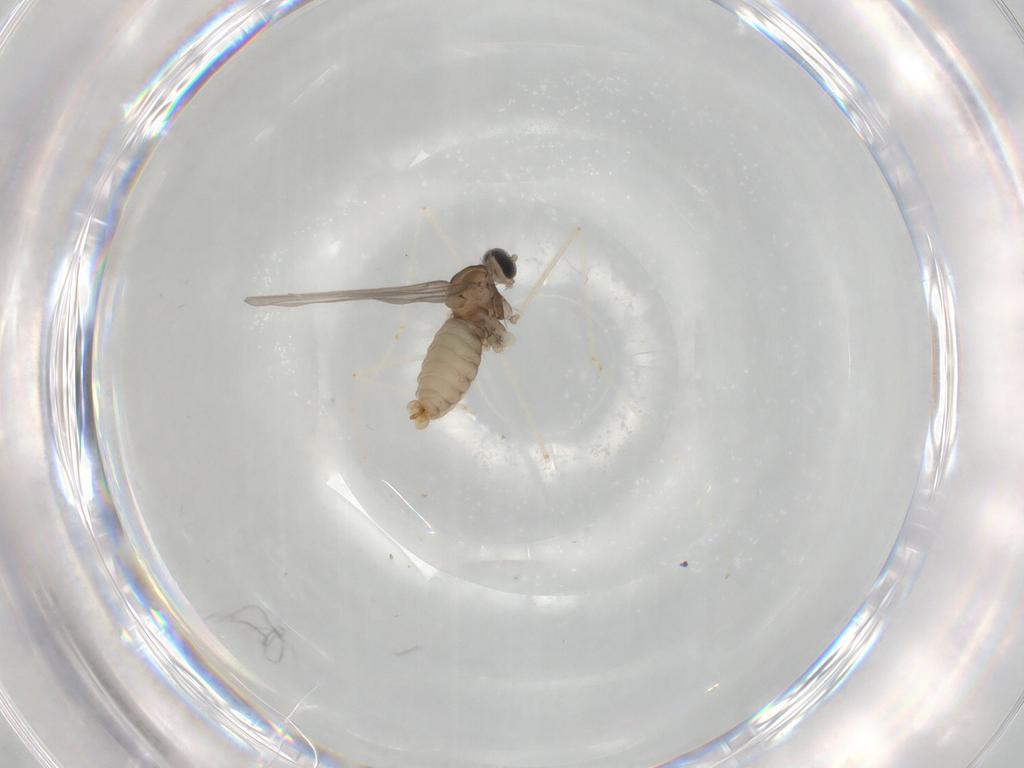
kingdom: Animalia
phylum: Arthropoda
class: Insecta
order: Diptera
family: Cecidomyiidae
